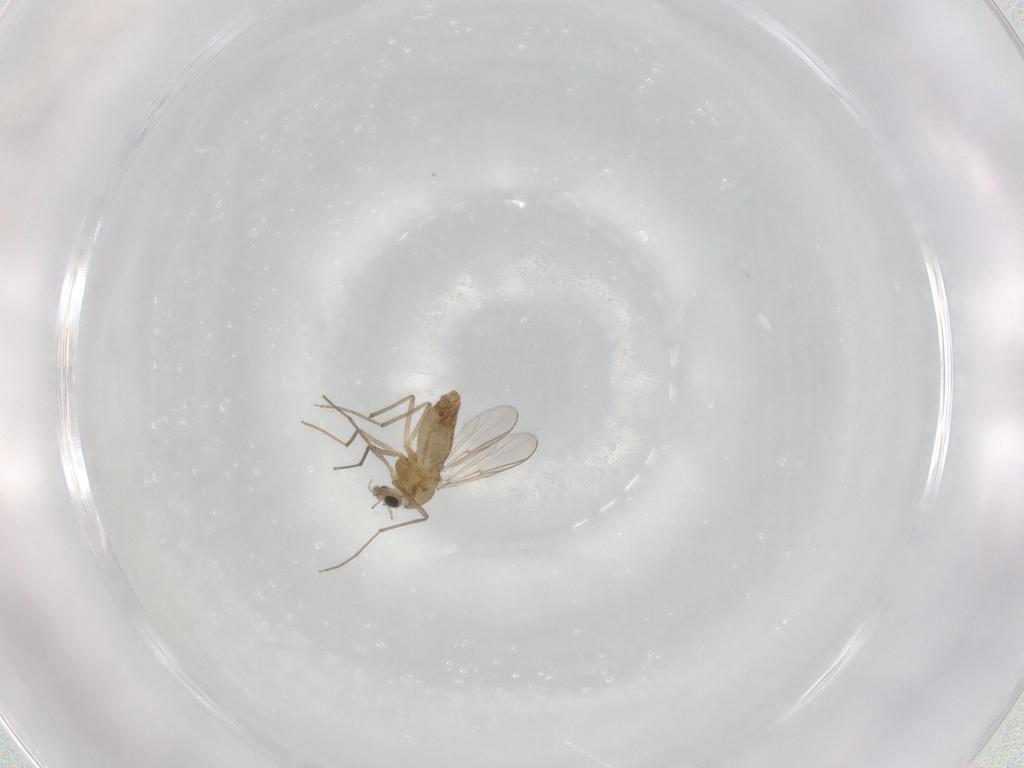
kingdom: Animalia
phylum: Arthropoda
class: Insecta
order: Diptera
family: Chironomidae
